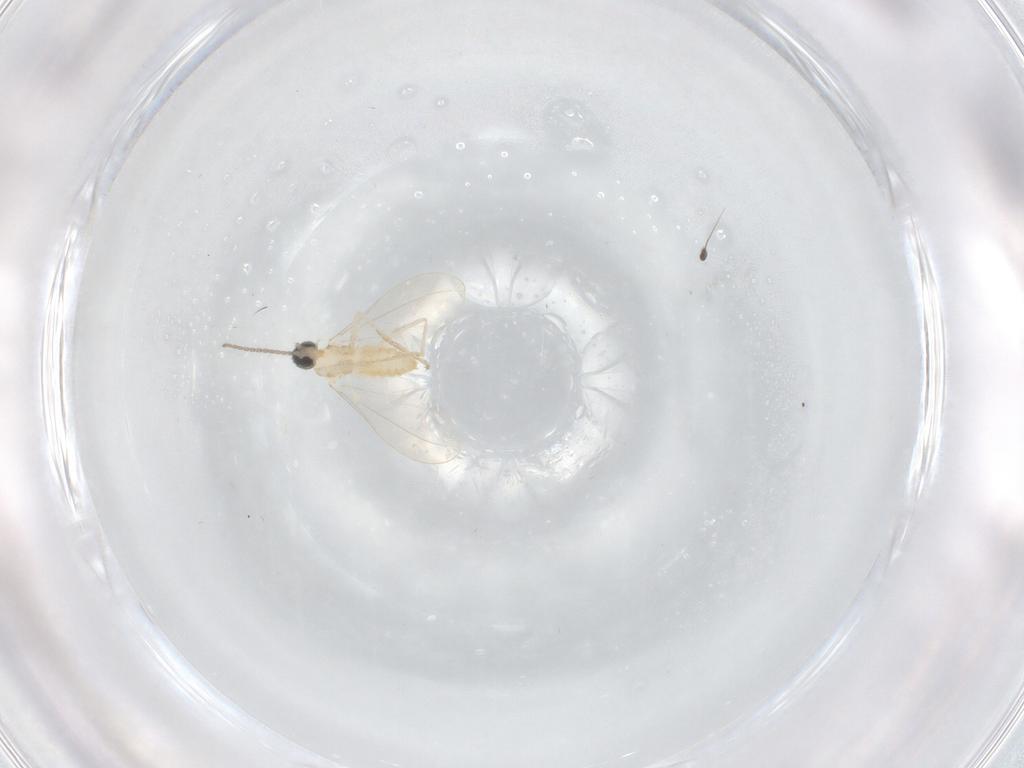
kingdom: Animalia
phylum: Arthropoda
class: Insecta
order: Diptera
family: Cecidomyiidae
